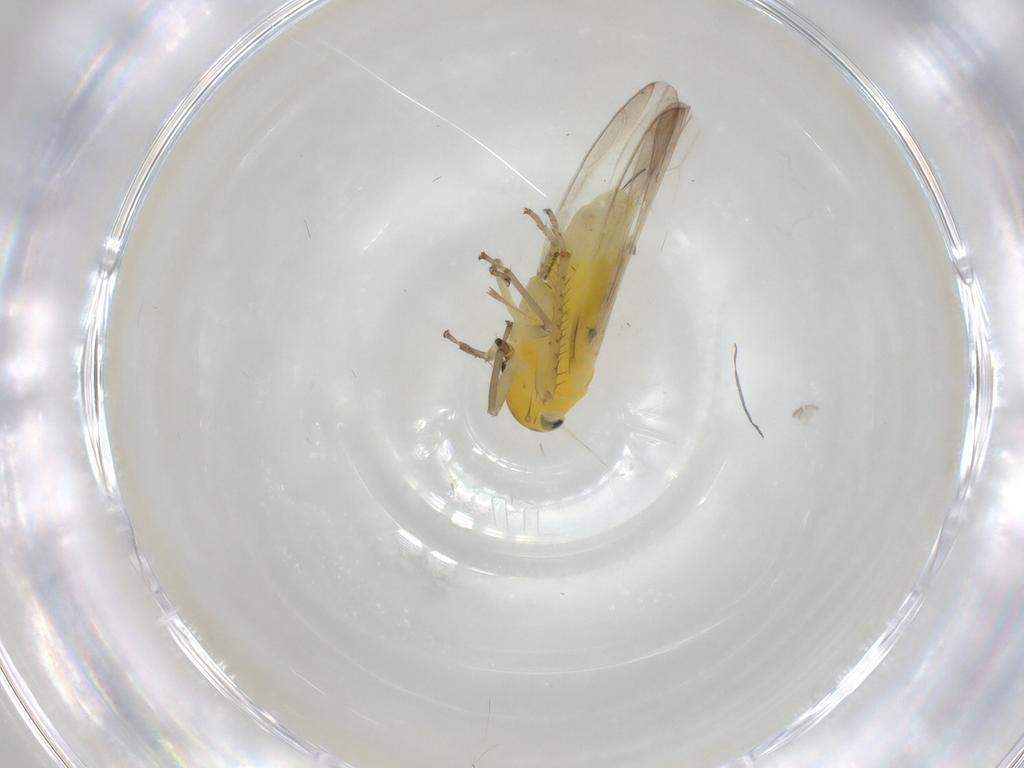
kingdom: Animalia
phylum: Arthropoda
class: Insecta
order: Hemiptera
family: Cicadellidae
